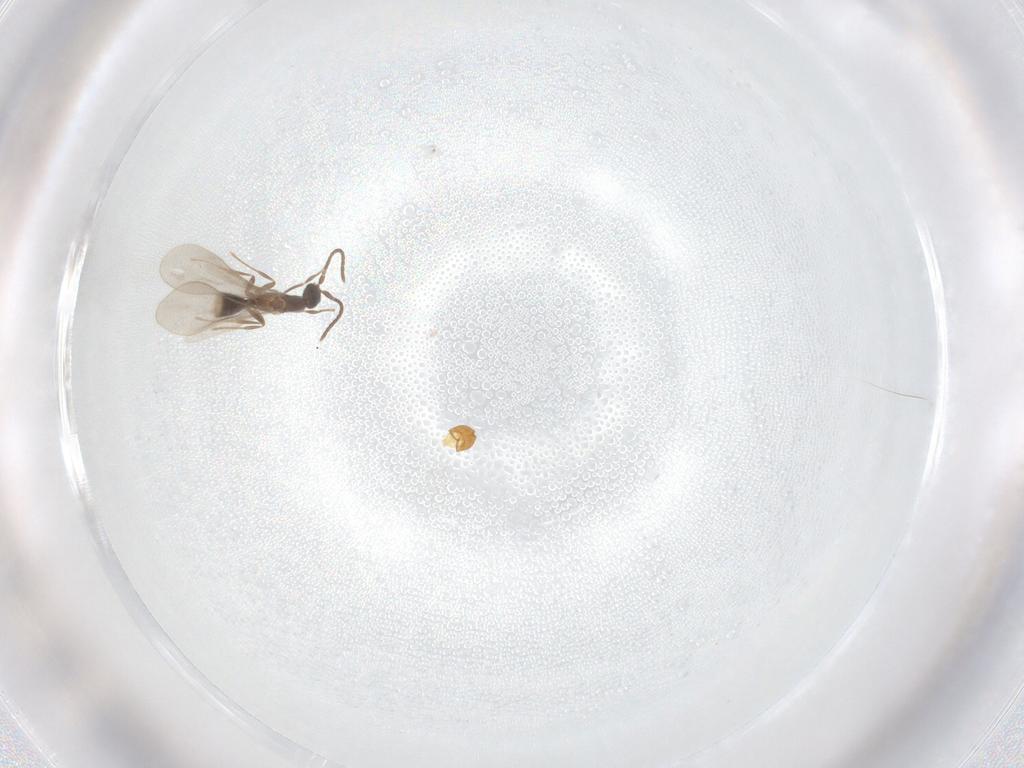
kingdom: Animalia
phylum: Arthropoda
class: Insecta
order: Hymenoptera
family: Formicidae
